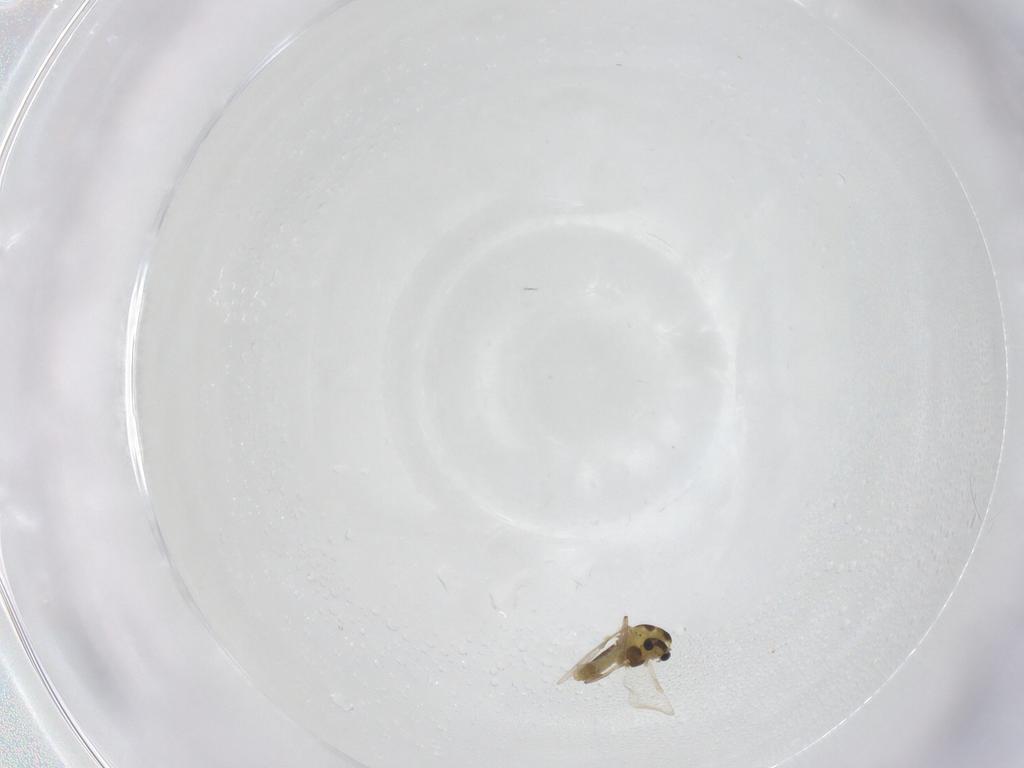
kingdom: Animalia
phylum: Arthropoda
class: Insecta
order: Diptera
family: Chironomidae
